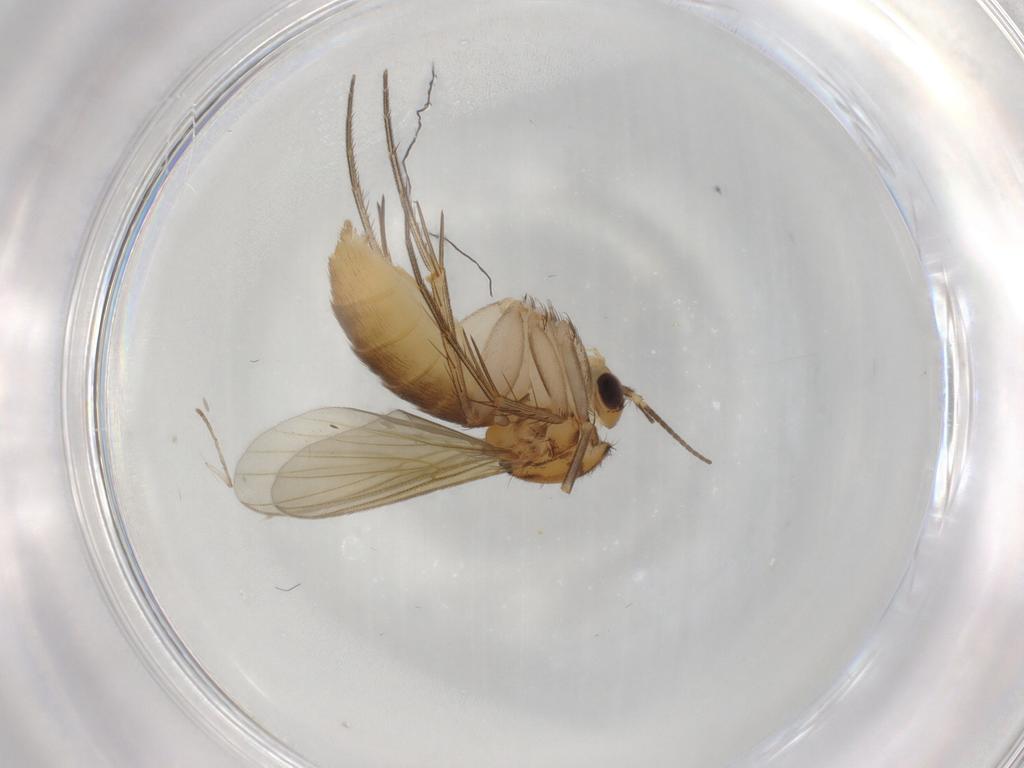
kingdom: Animalia
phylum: Arthropoda
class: Insecta
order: Diptera
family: Mycetophilidae
